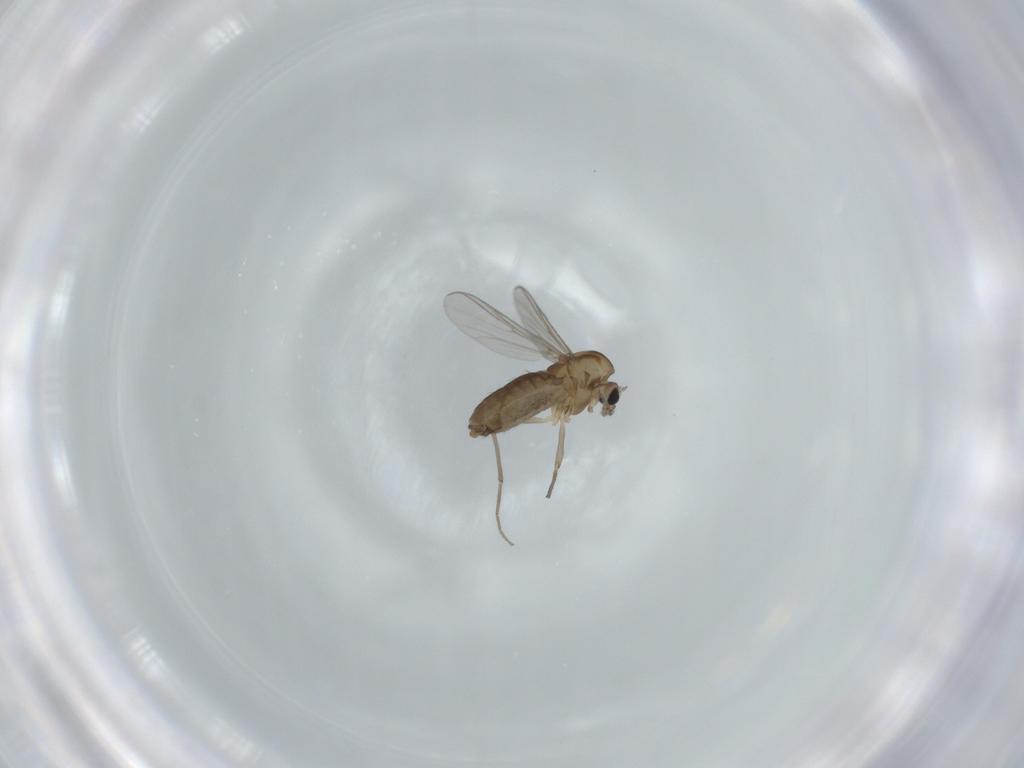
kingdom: Animalia
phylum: Arthropoda
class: Insecta
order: Diptera
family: Chironomidae
